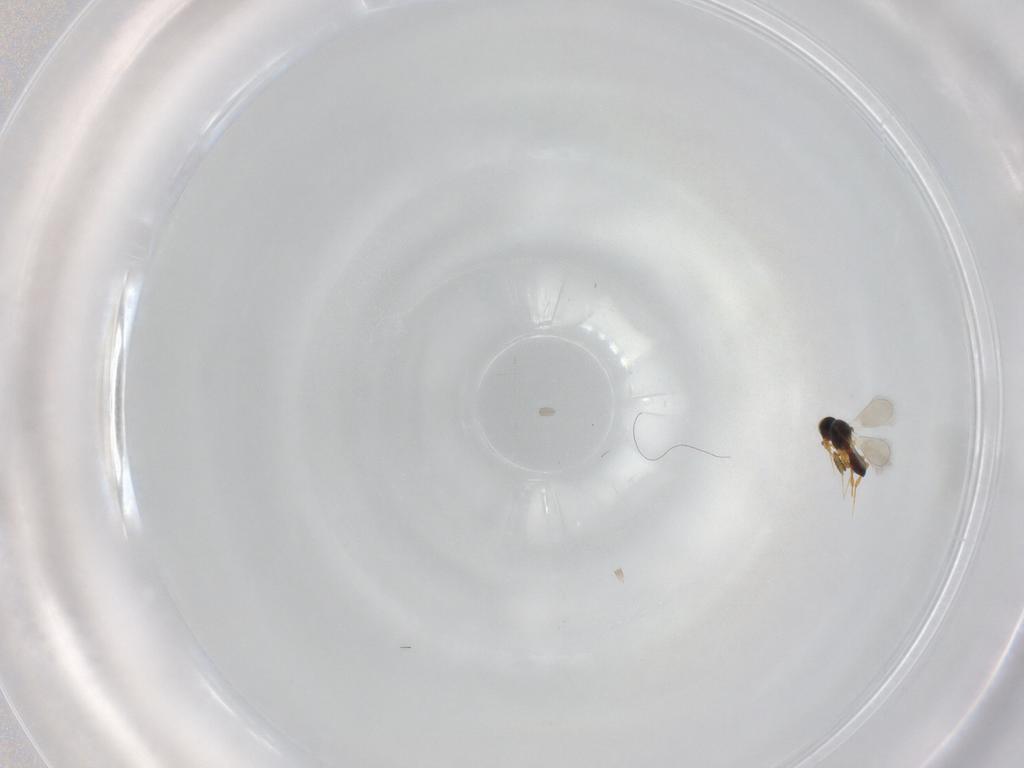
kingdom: Animalia
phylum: Arthropoda
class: Insecta
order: Hymenoptera
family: Platygastridae
